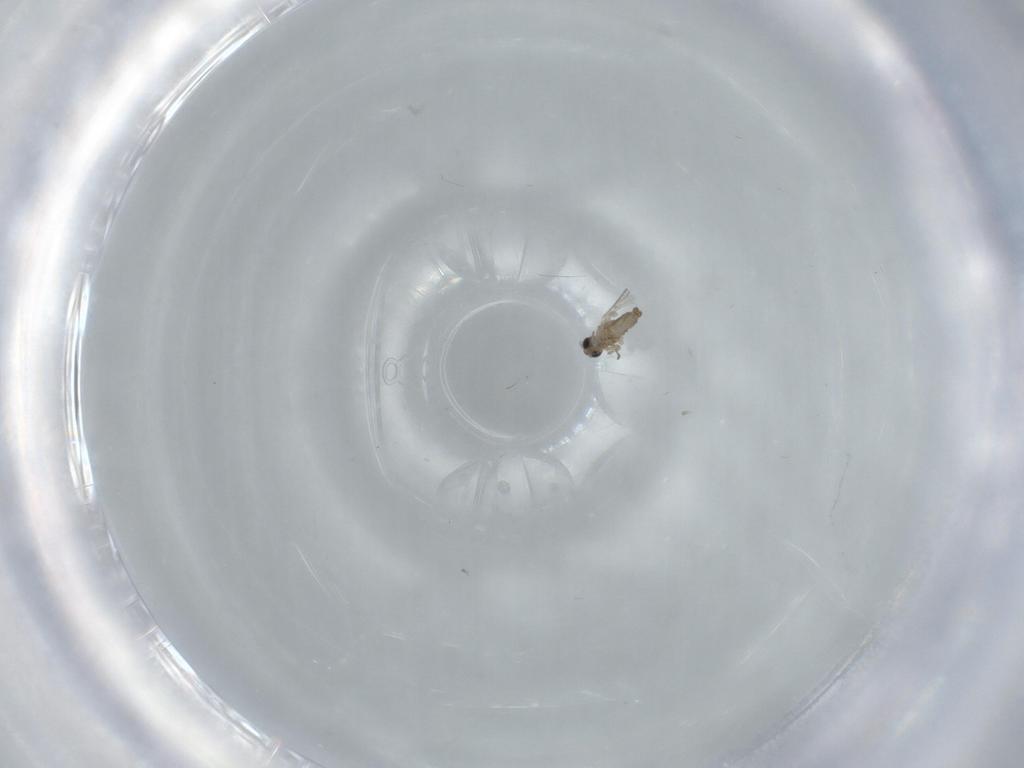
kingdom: Animalia
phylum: Arthropoda
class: Insecta
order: Diptera
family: Cecidomyiidae
